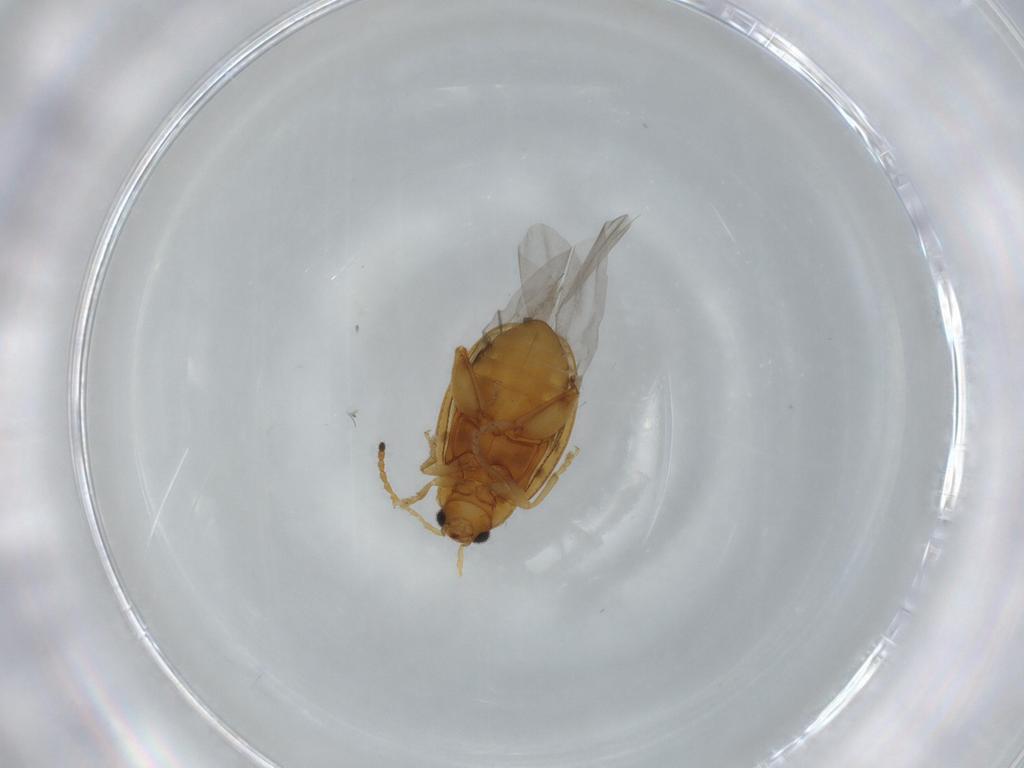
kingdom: Animalia
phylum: Arthropoda
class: Insecta
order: Coleoptera
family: Chrysomelidae
